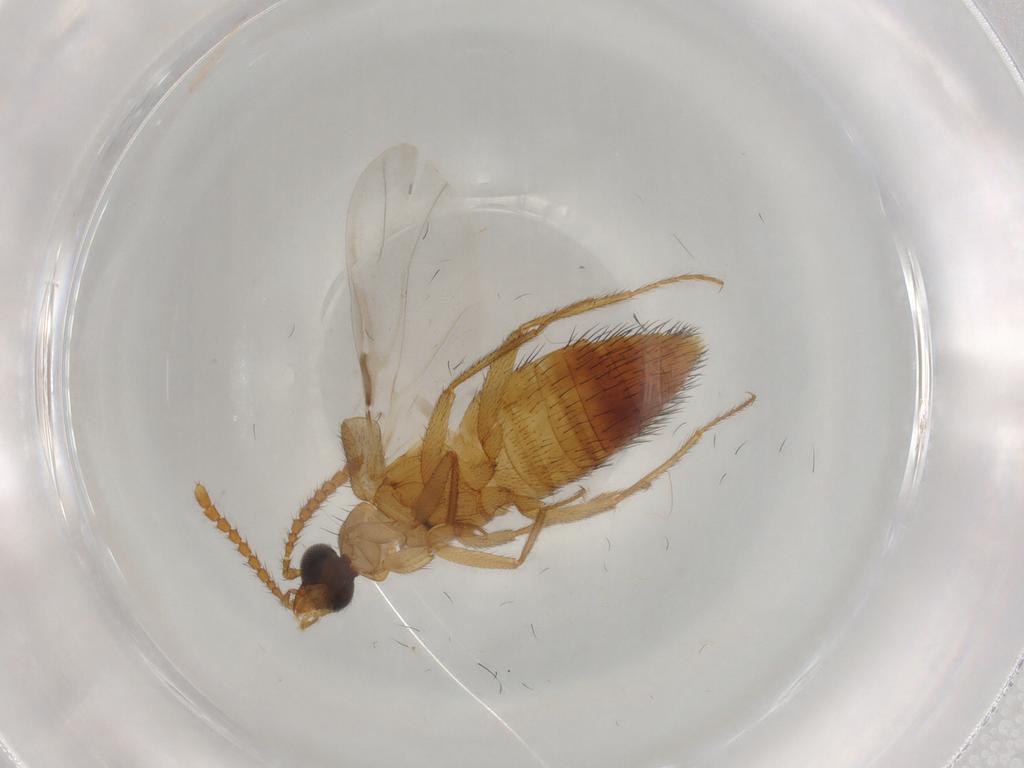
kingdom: Animalia
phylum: Arthropoda
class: Insecta
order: Coleoptera
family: Staphylinidae
